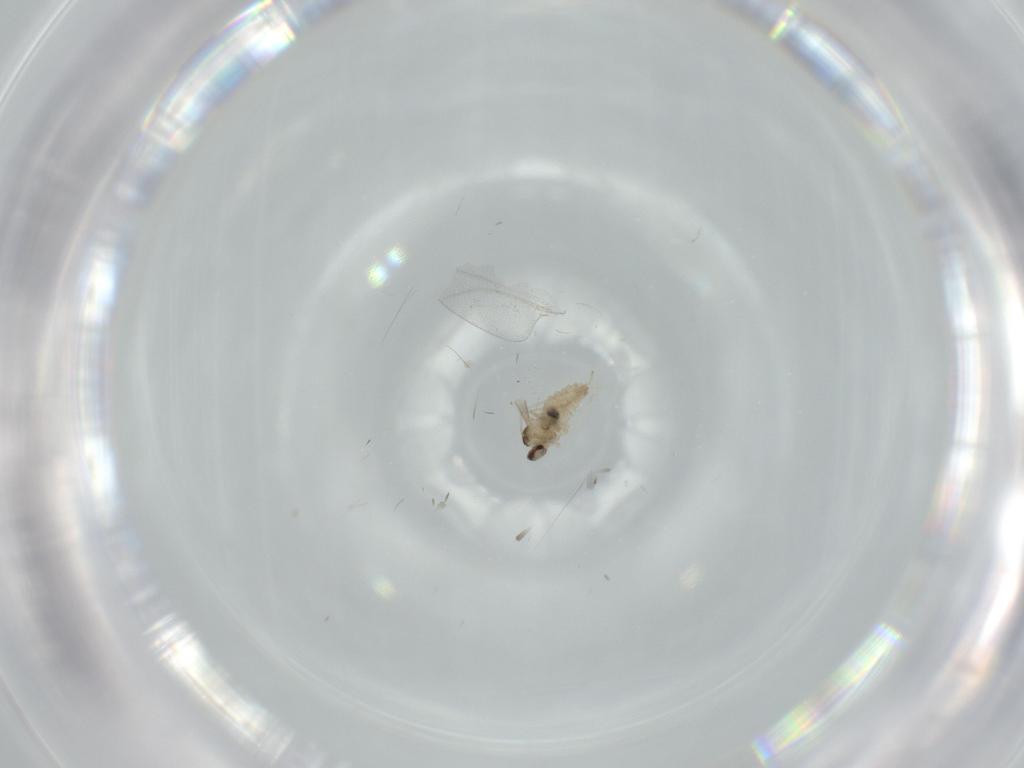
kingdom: Animalia
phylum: Arthropoda
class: Insecta
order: Diptera
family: Cecidomyiidae
